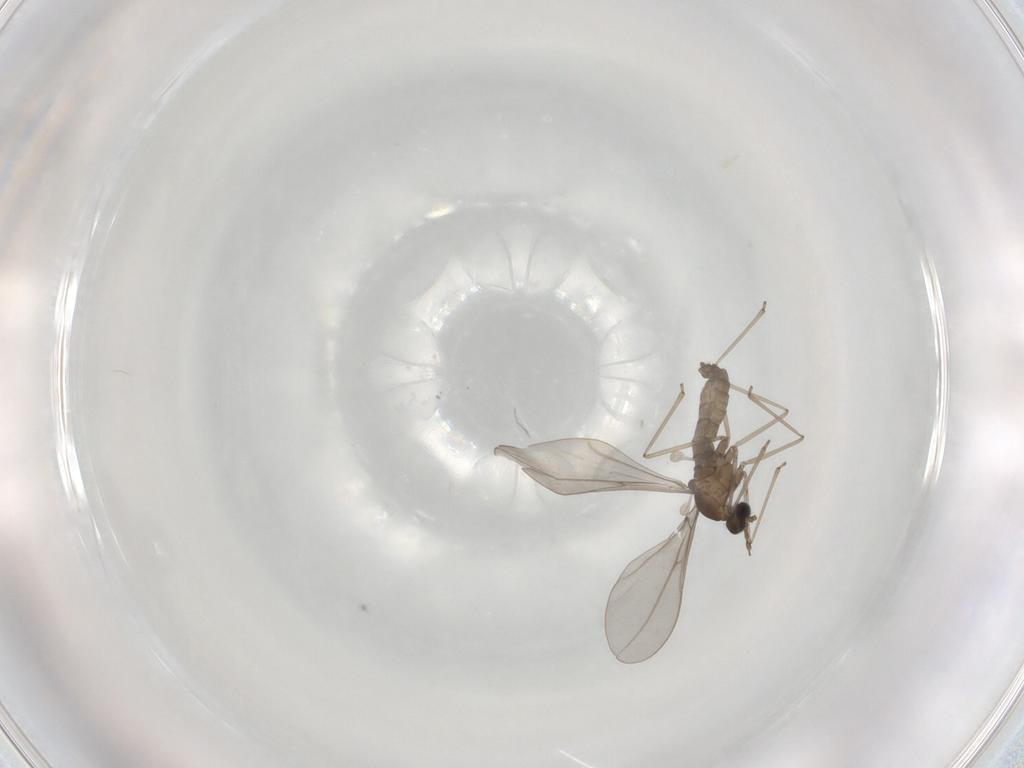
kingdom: Animalia
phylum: Arthropoda
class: Insecta
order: Diptera
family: Cecidomyiidae
